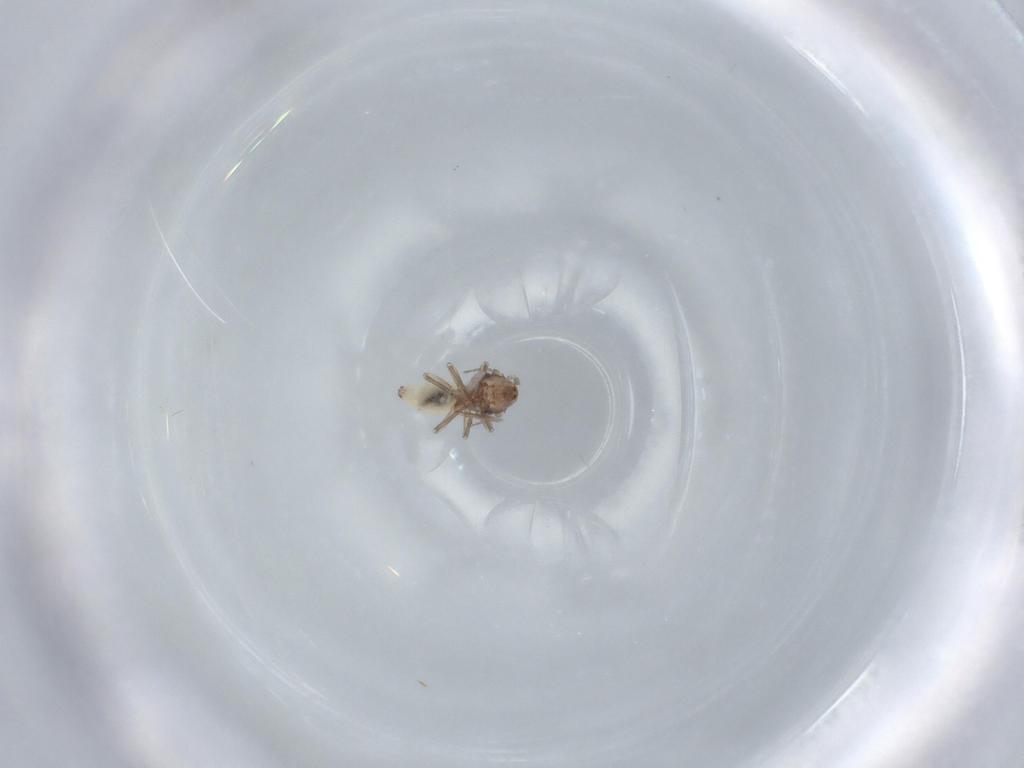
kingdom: Animalia
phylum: Arthropoda
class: Insecta
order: Psocodea
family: Lepidopsocidae
